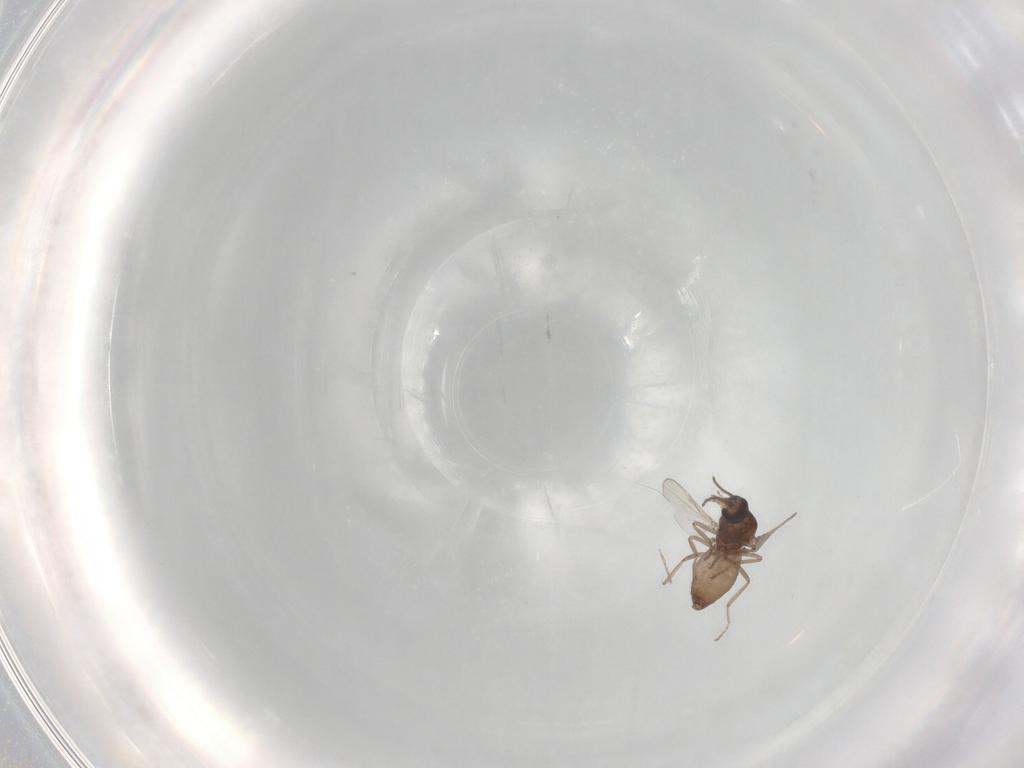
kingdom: Animalia
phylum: Arthropoda
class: Insecta
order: Diptera
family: Ceratopogonidae
